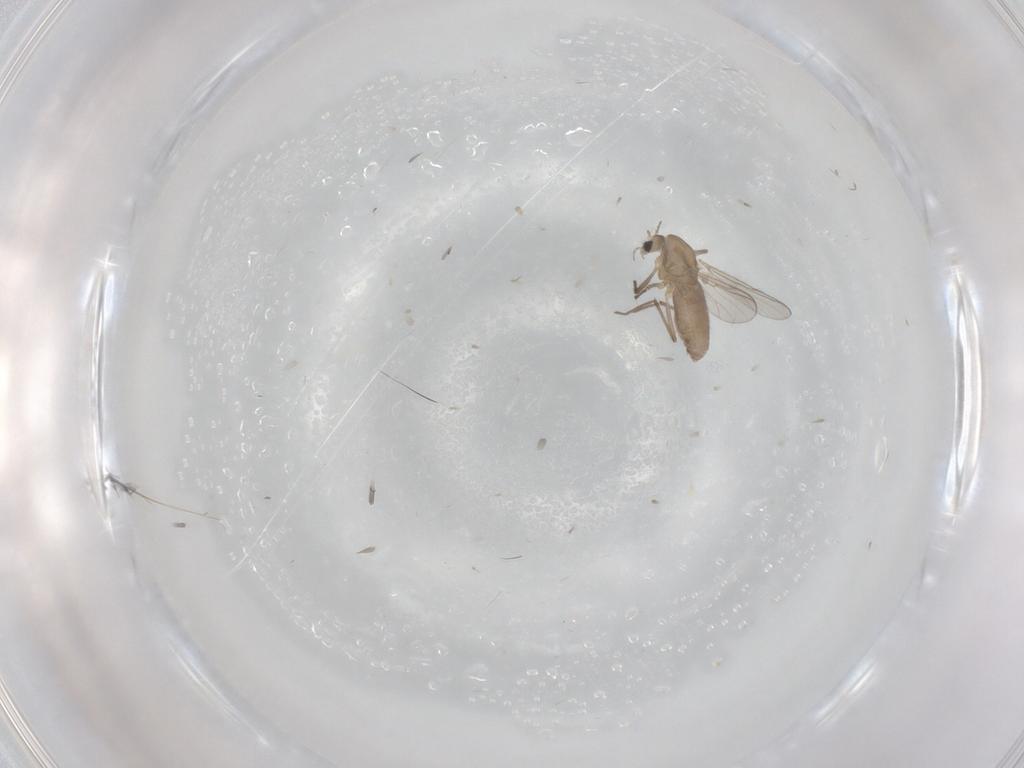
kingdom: Animalia
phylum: Arthropoda
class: Insecta
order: Diptera
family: Chironomidae
